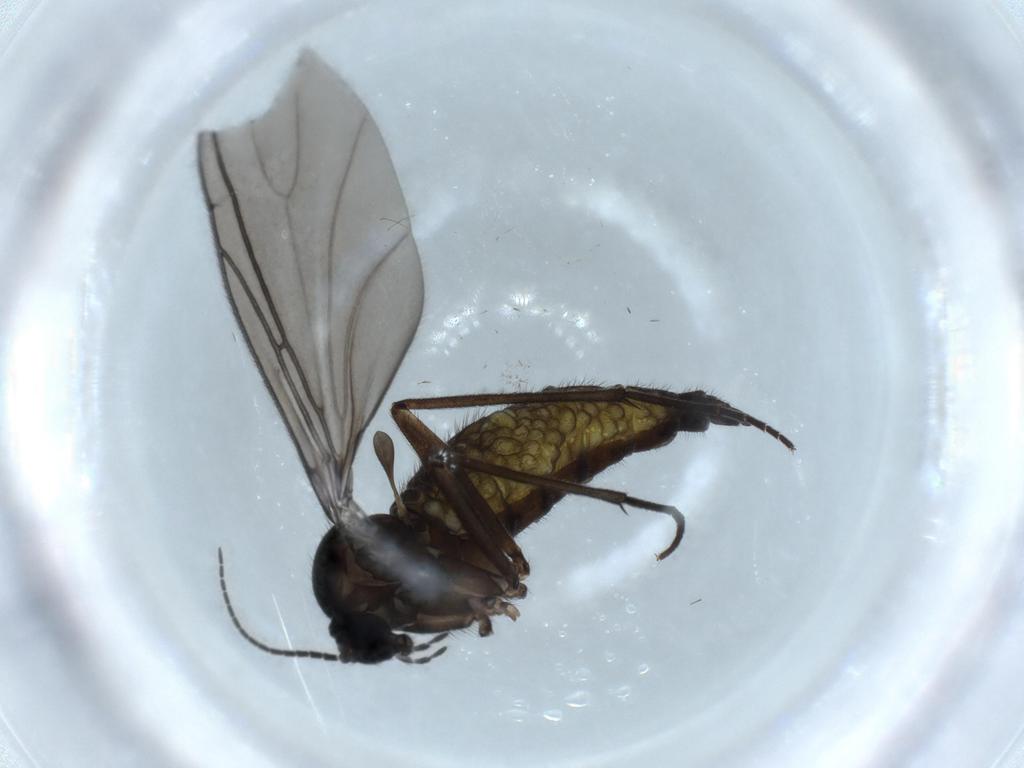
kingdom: Animalia
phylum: Arthropoda
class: Insecta
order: Diptera
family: Sciaridae
